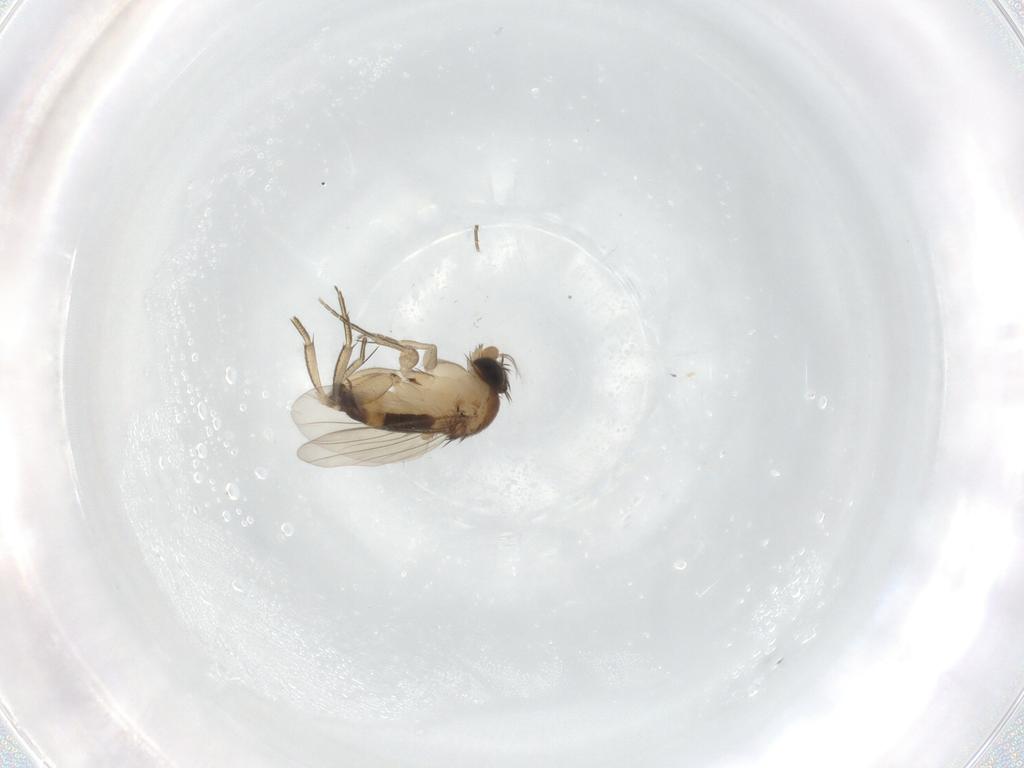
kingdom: Animalia
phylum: Arthropoda
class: Insecta
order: Diptera
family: Phoridae
